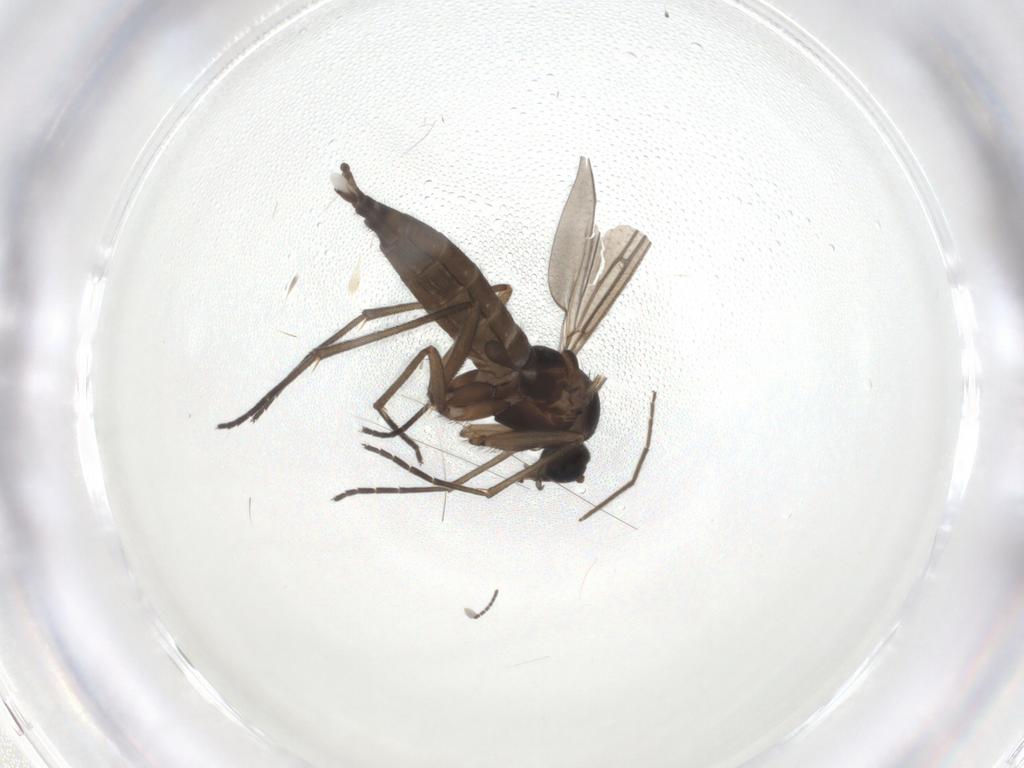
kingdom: Animalia
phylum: Arthropoda
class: Insecta
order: Diptera
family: Sciaridae
